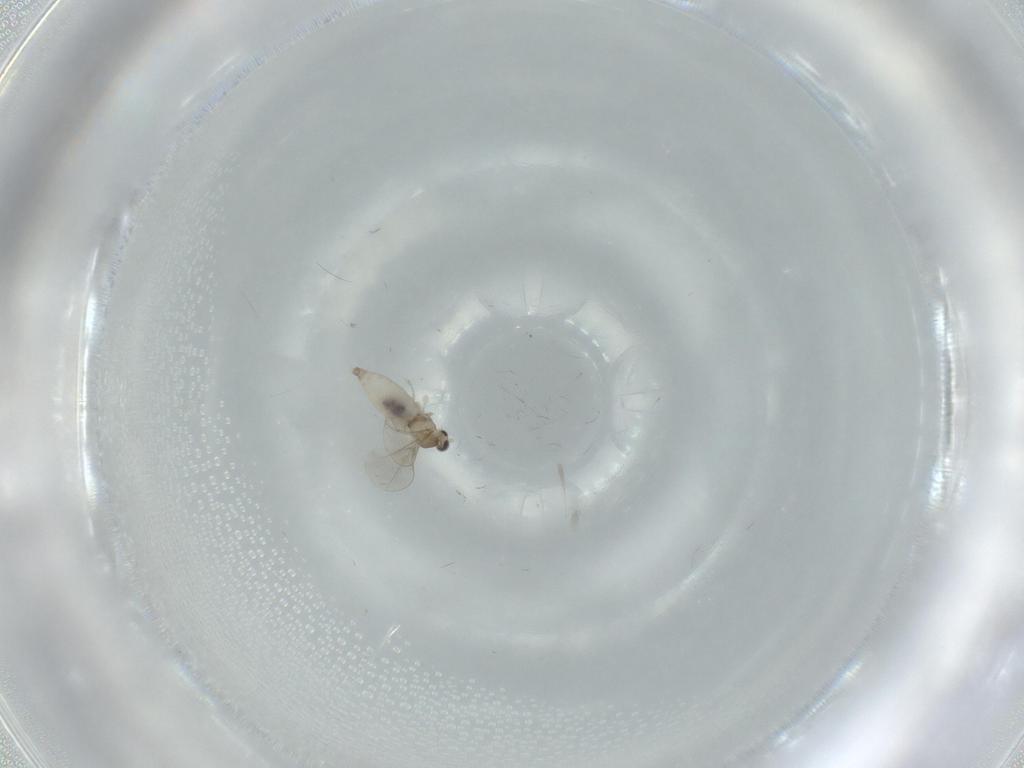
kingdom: Animalia
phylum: Arthropoda
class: Insecta
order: Diptera
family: Cecidomyiidae
